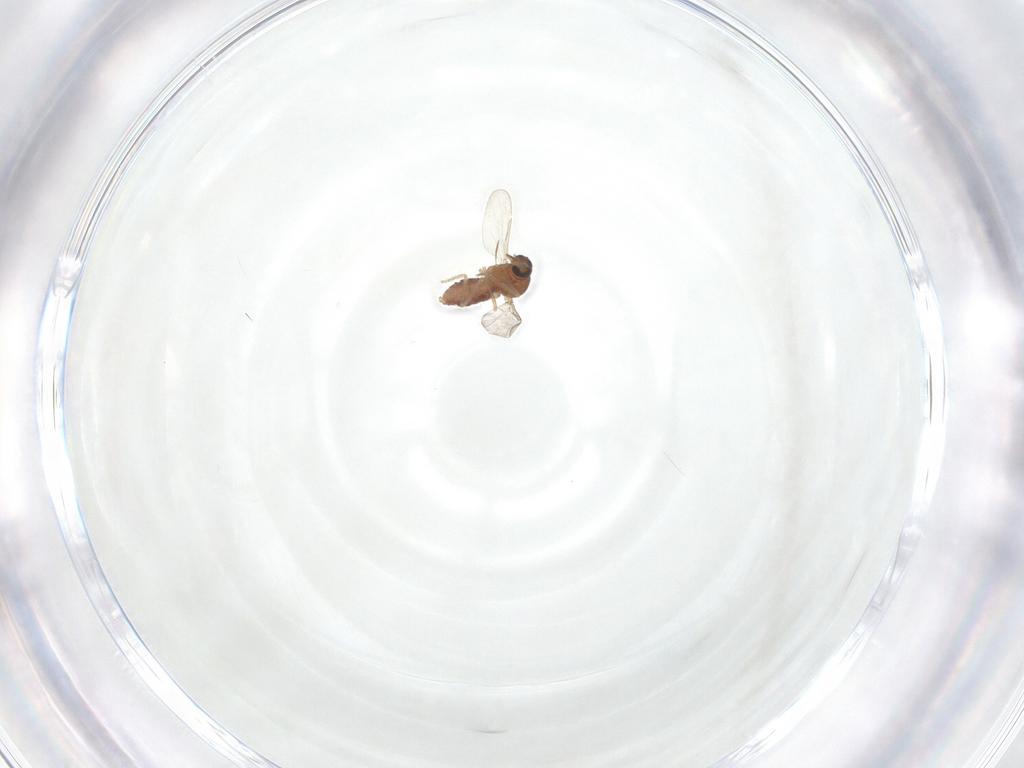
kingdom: Animalia
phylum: Arthropoda
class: Insecta
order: Diptera
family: Ceratopogonidae
